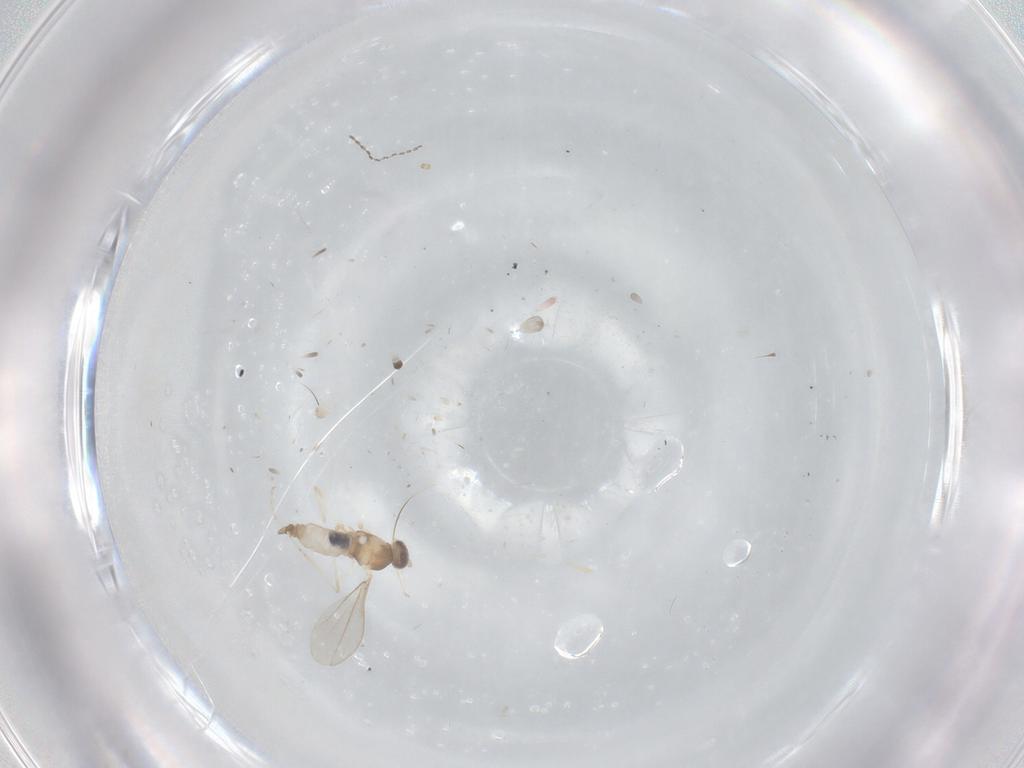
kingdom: Animalia
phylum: Arthropoda
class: Insecta
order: Diptera
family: Cecidomyiidae
